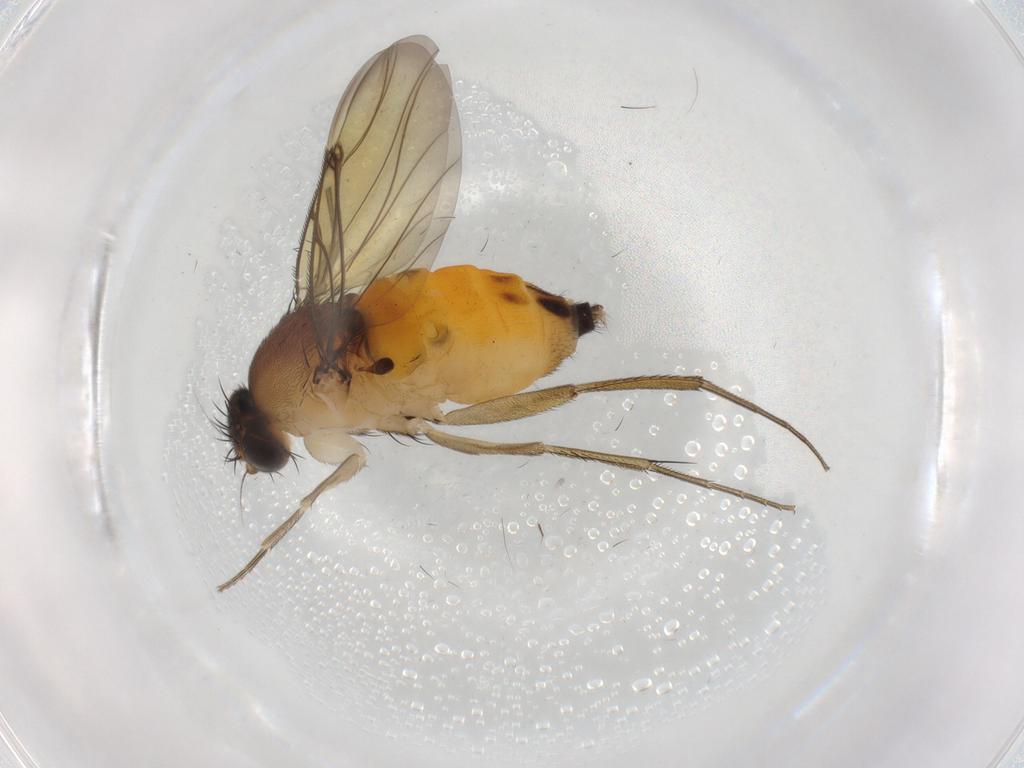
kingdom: Animalia
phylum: Arthropoda
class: Insecta
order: Diptera
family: Phoridae
